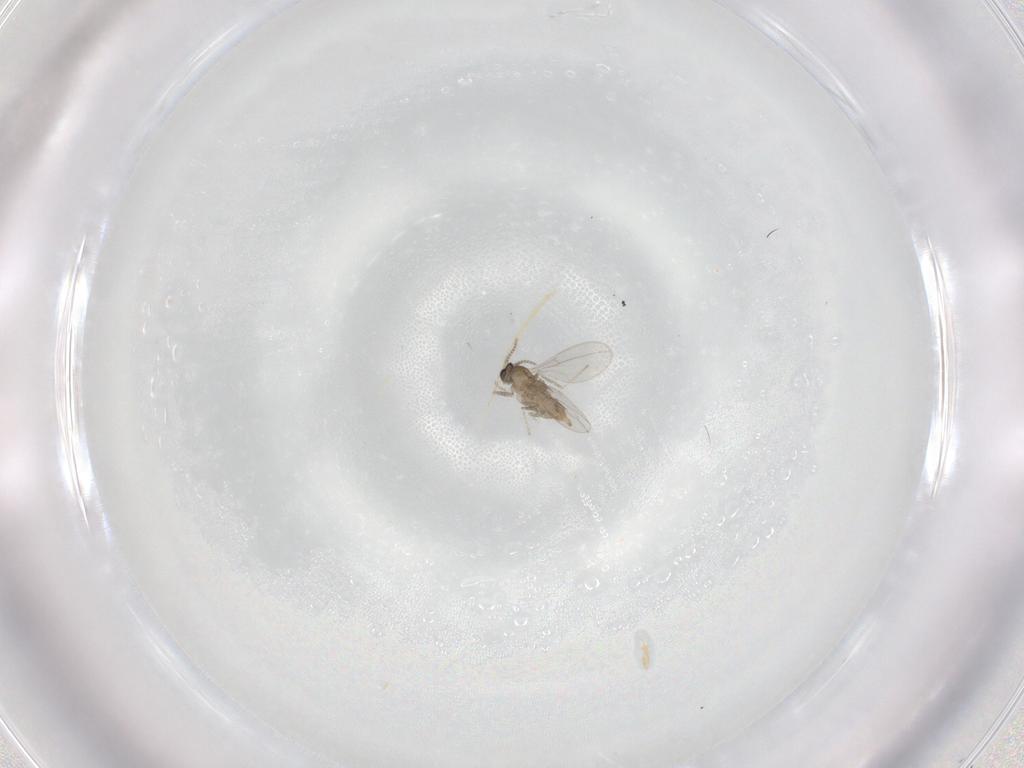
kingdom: Animalia
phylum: Arthropoda
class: Insecta
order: Diptera
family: Cecidomyiidae
